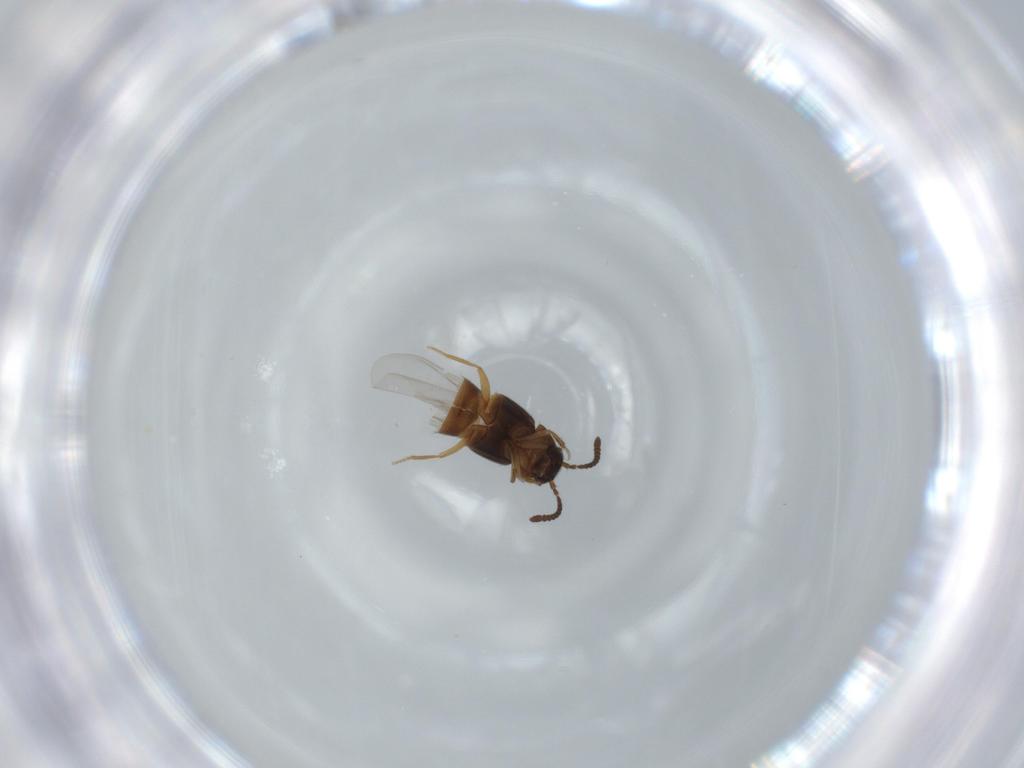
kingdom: Animalia
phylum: Arthropoda
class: Insecta
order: Coleoptera
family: Staphylinidae
